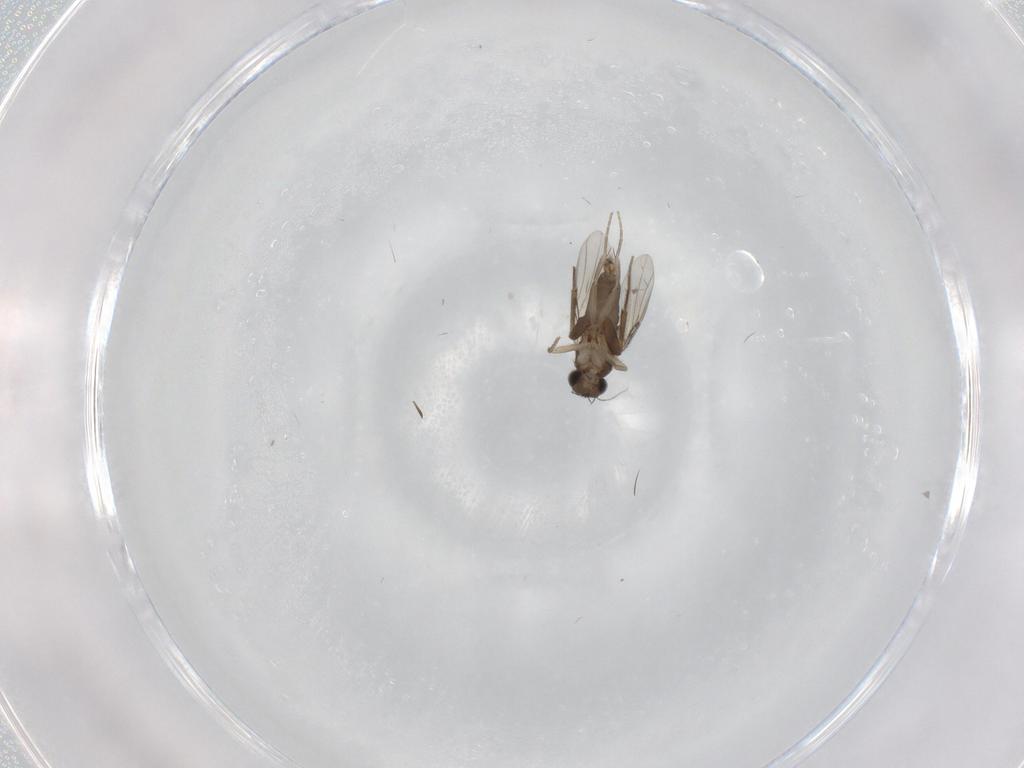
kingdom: Animalia
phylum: Arthropoda
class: Insecta
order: Diptera
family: Phoridae
